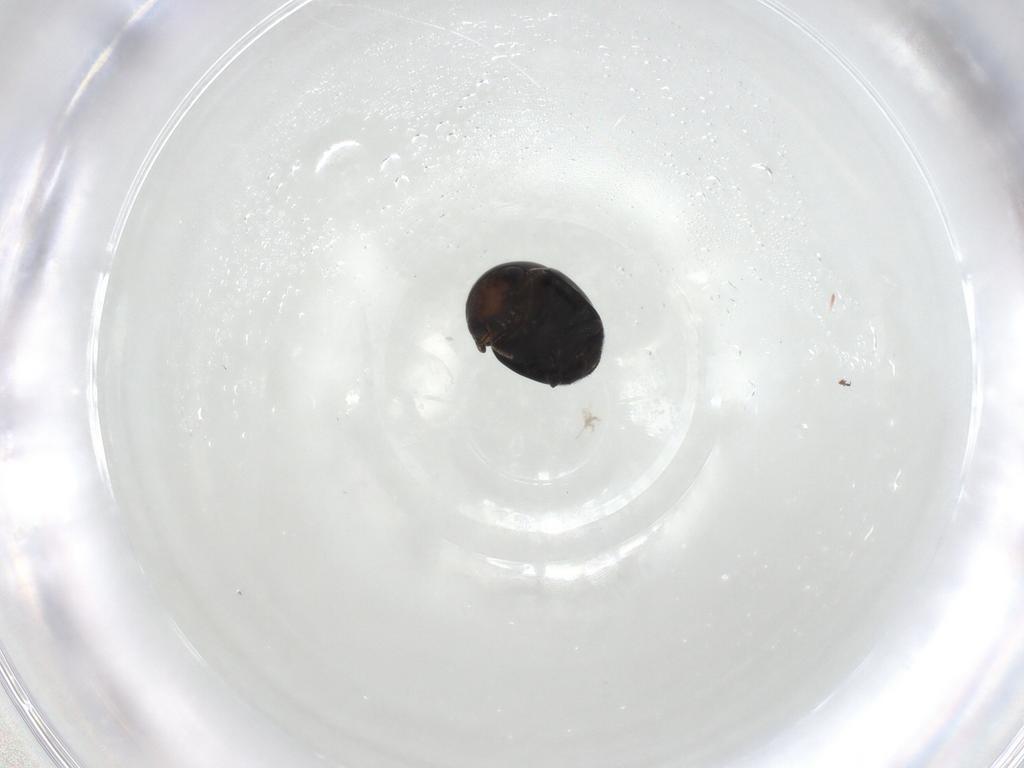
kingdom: Animalia
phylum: Arthropoda
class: Insecta
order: Coleoptera
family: Cybocephalidae
